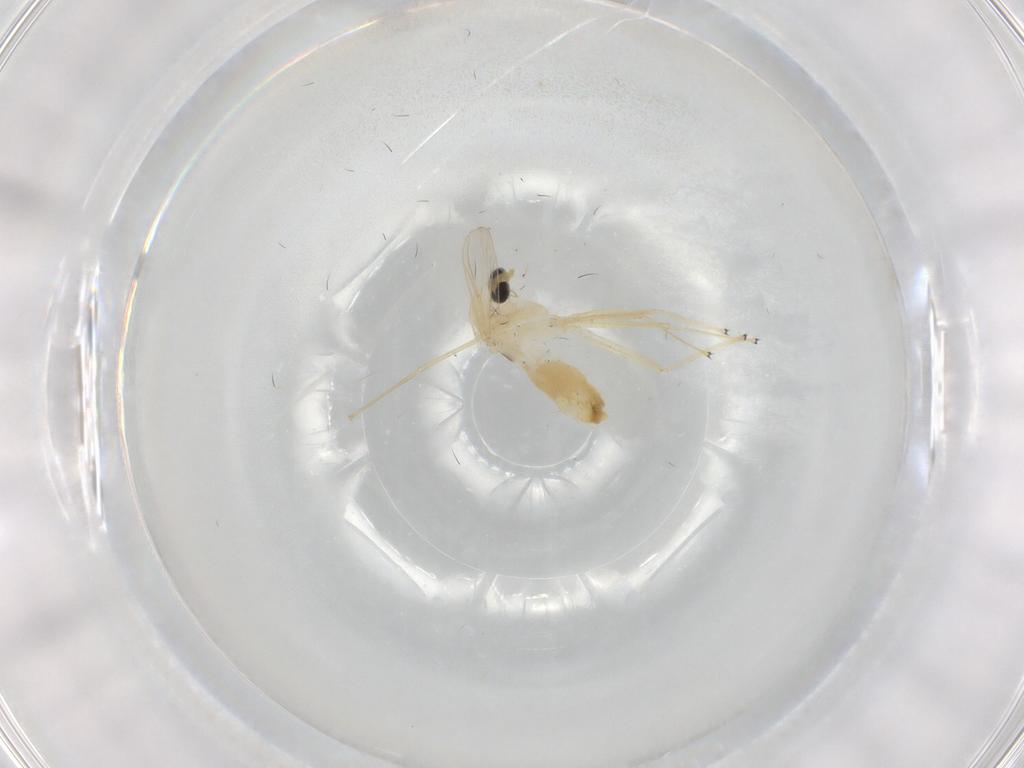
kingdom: Animalia
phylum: Arthropoda
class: Insecta
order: Diptera
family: Chironomidae
